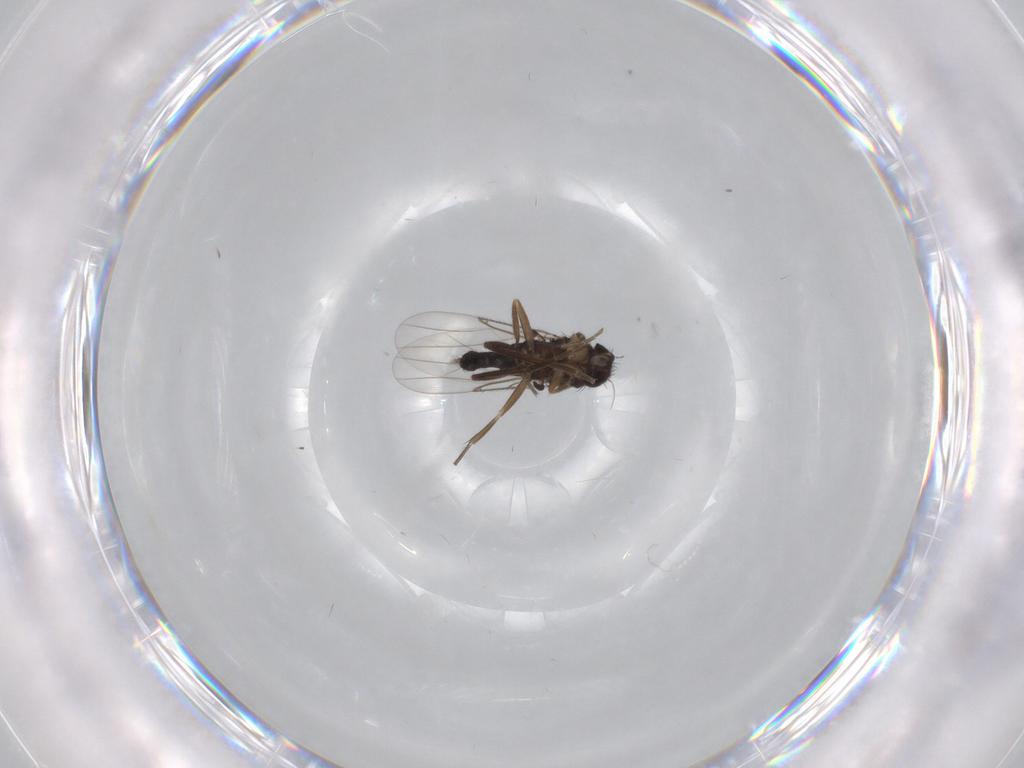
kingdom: Animalia
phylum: Arthropoda
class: Insecta
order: Diptera
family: Phoridae
